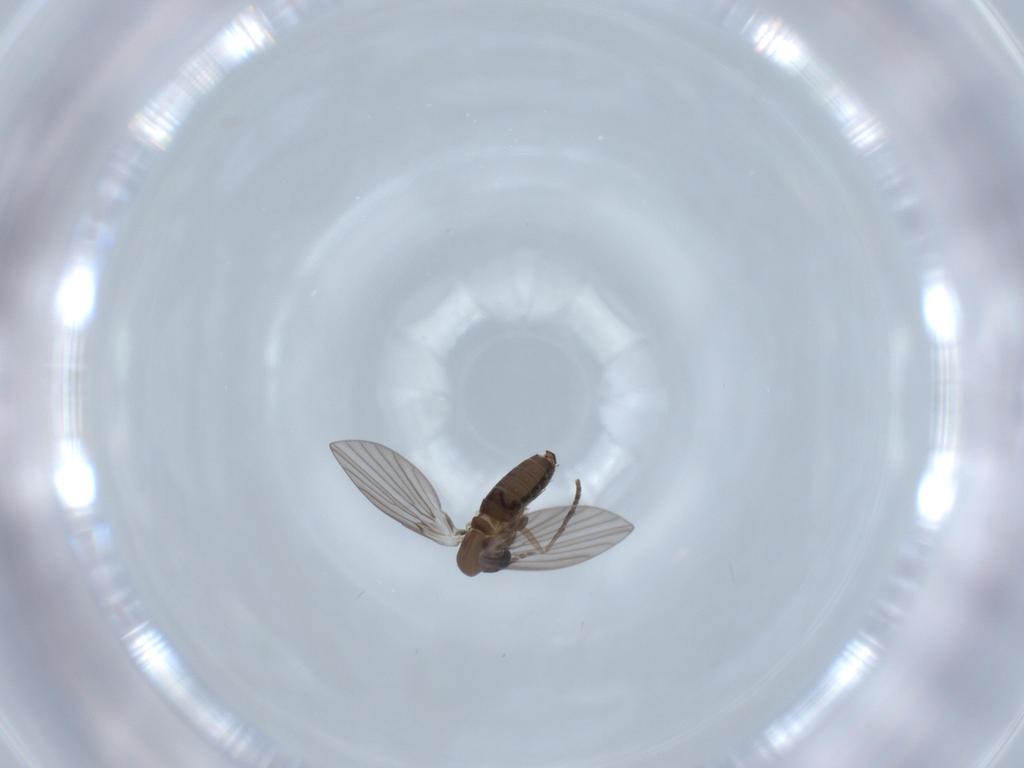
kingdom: Animalia
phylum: Arthropoda
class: Insecta
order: Diptera
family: Psychodidae
